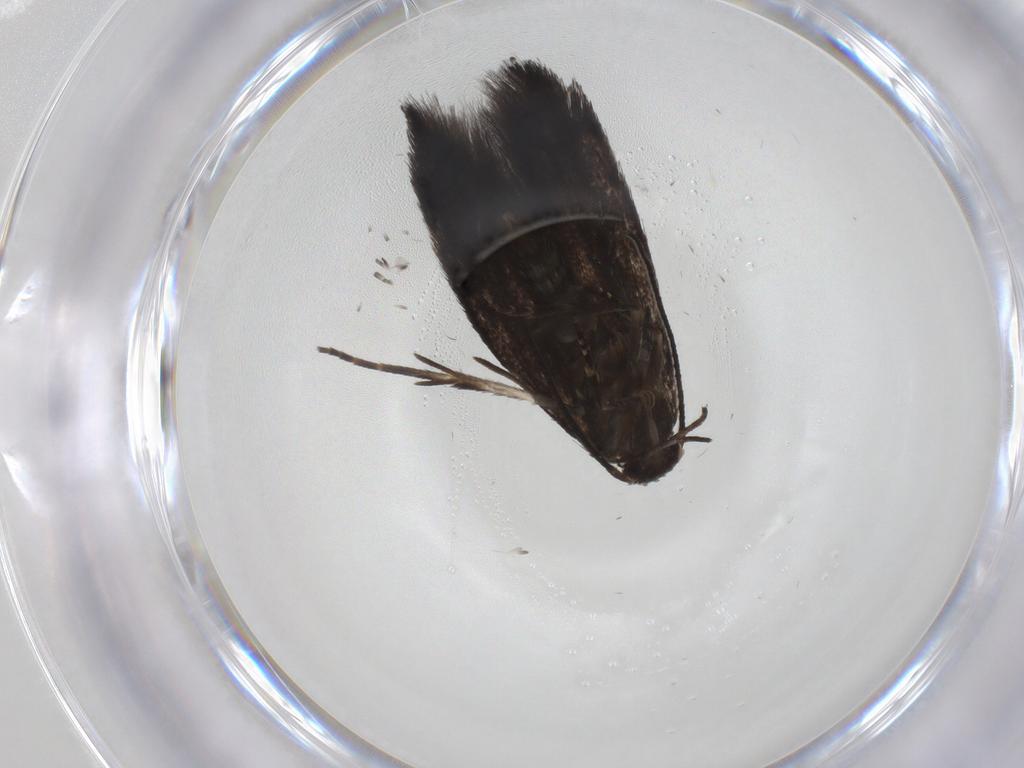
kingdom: Animalia
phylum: Arthropoda
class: Insecta
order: Lepidoptera
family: Elachistidae
